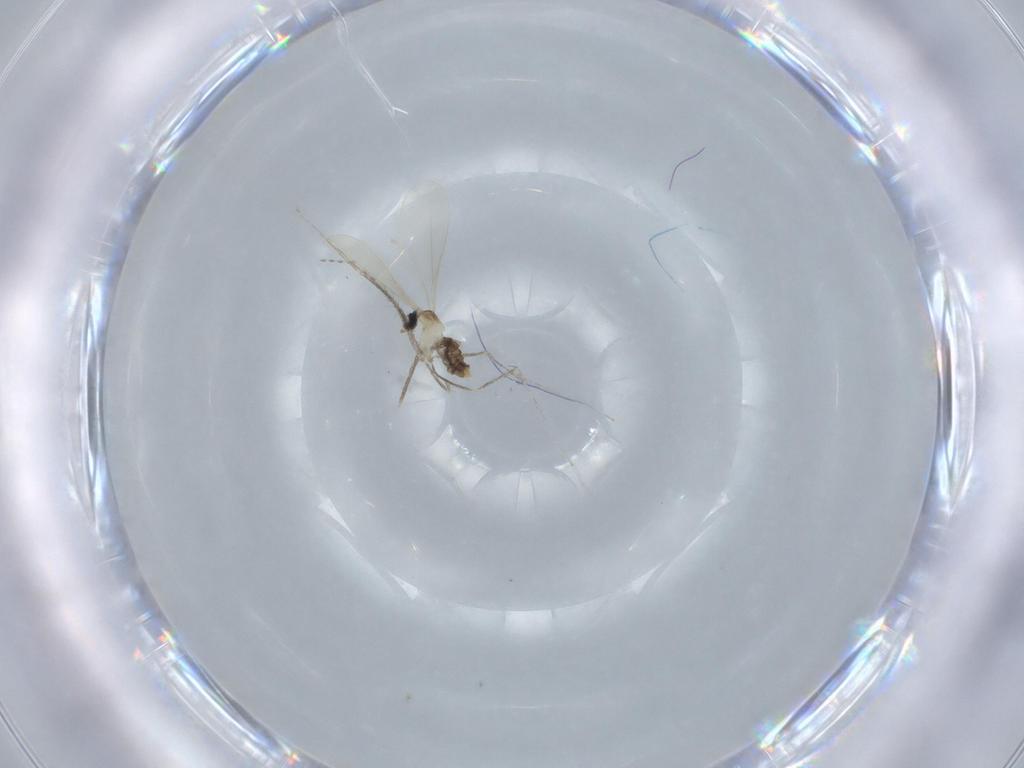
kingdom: Animalia
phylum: Arthropoda
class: Insecta
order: Diptera
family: Cecidomyiidae
